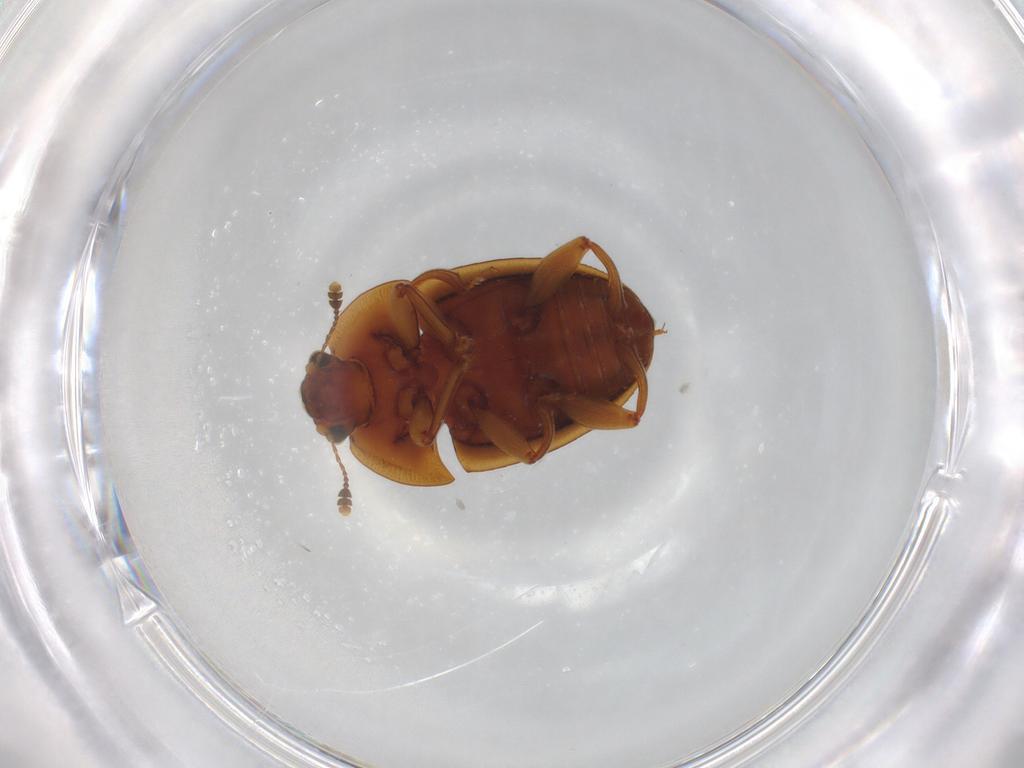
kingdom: Animalia
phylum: Arthropoda
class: Insecta
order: Coleoptera
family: Nitidulidae
